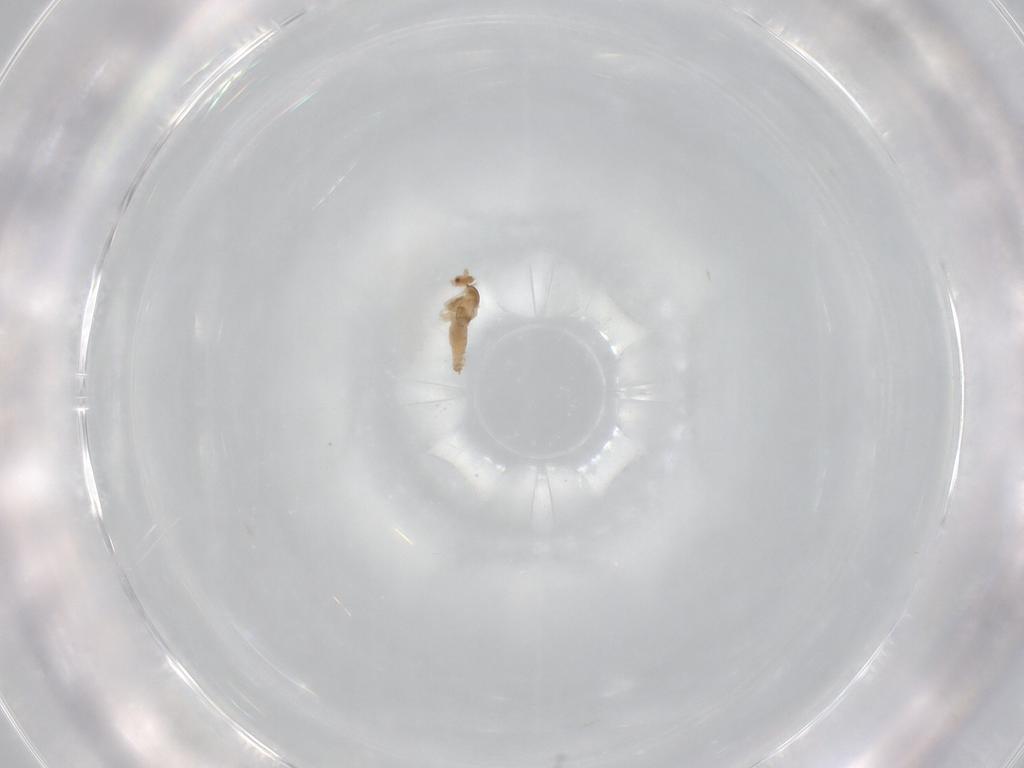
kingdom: Animalia
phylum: Arthropoda
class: Insecta
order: Diptera
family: Cecidomyiidae
